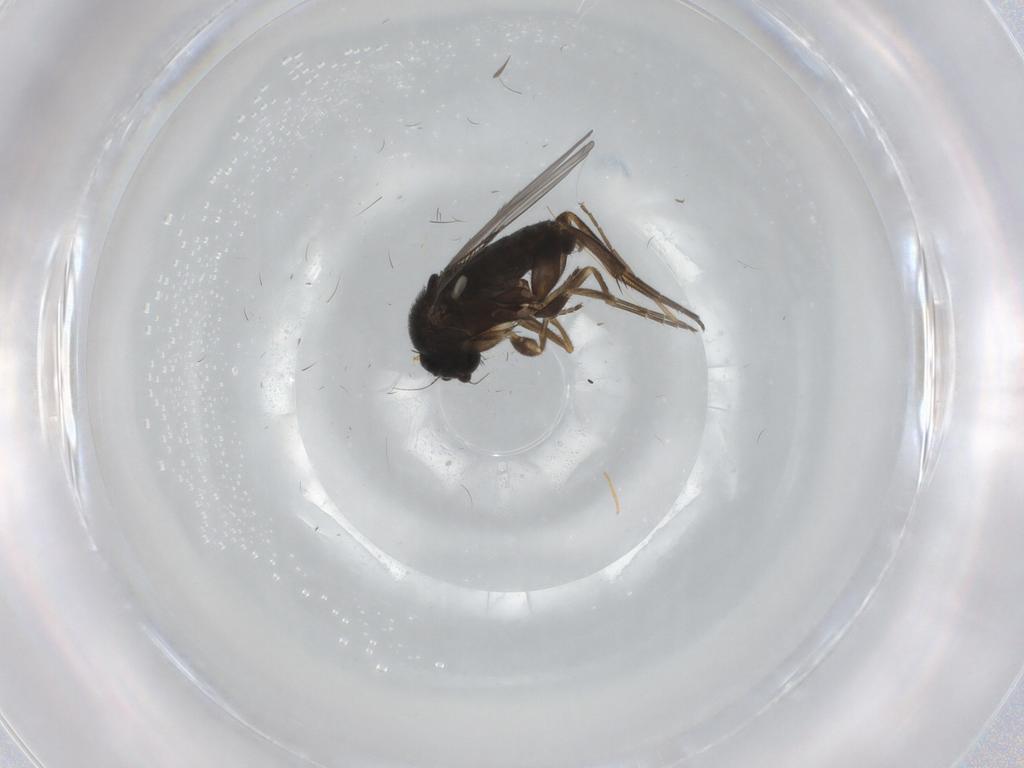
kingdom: Animalia
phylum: Arthropoda
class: Insecta
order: Diptera
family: Phoridae
